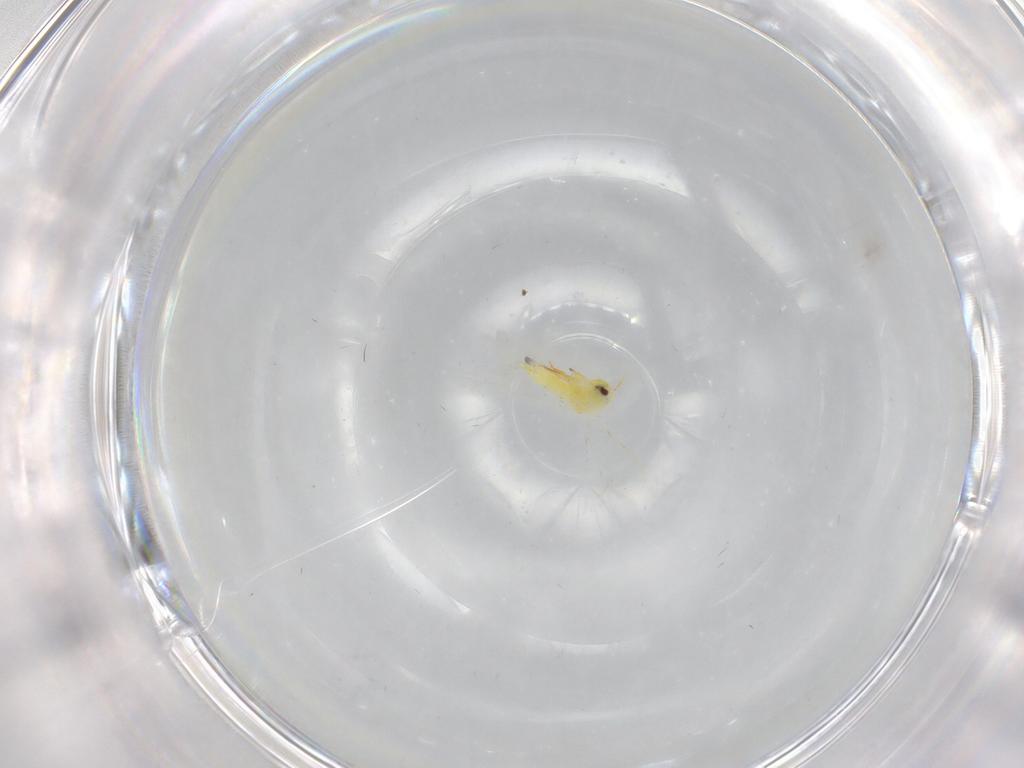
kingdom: Animalia
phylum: Arthropoda
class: Insecta
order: Hemiptera
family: Aleyrodidae
